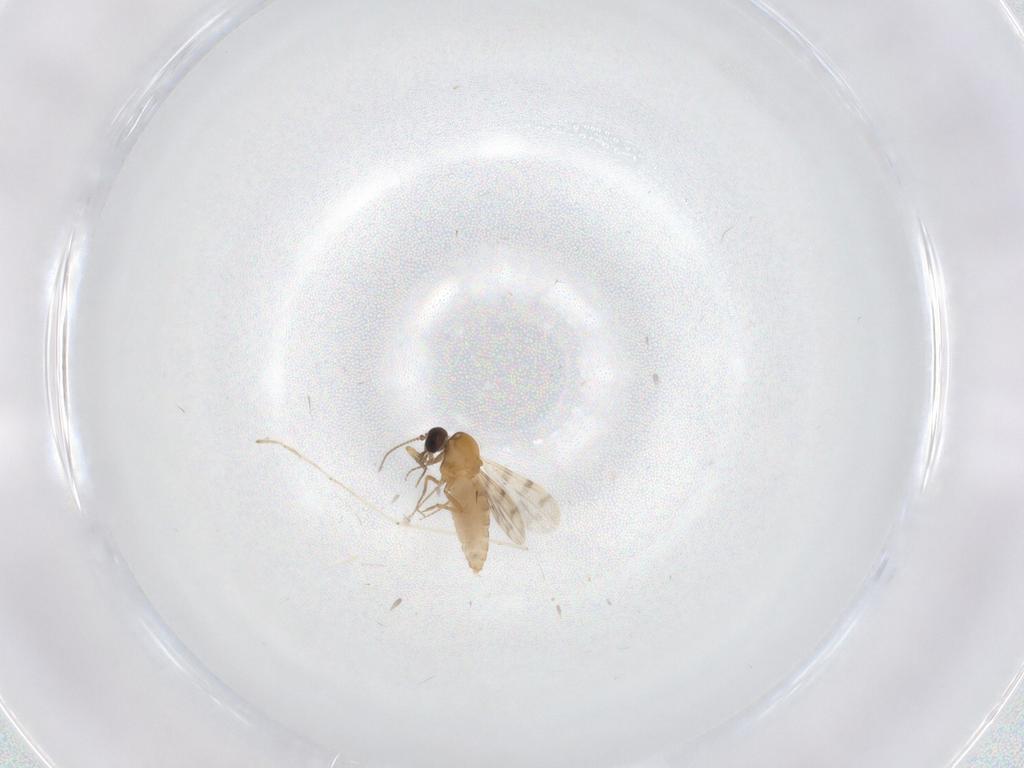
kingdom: Animalia
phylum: Arthropoda
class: Insecta
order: Diptera
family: Ceratopogonidae
